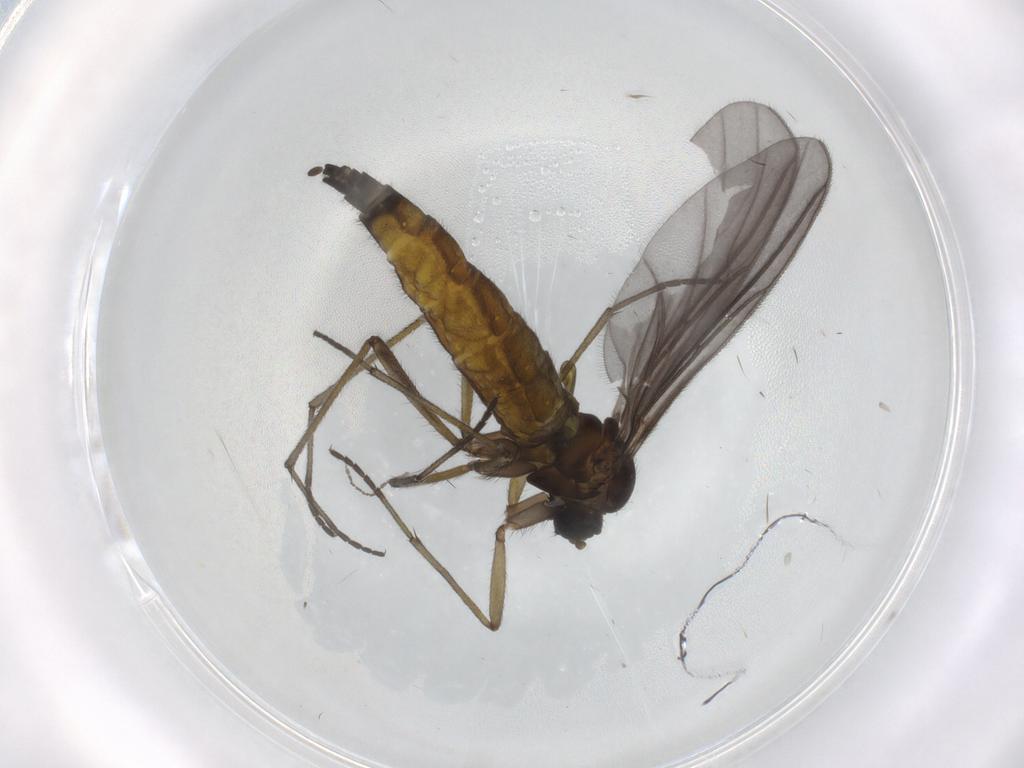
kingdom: Animalia
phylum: Arthropoda
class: Insecta
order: Diptera
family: Sciaridae
